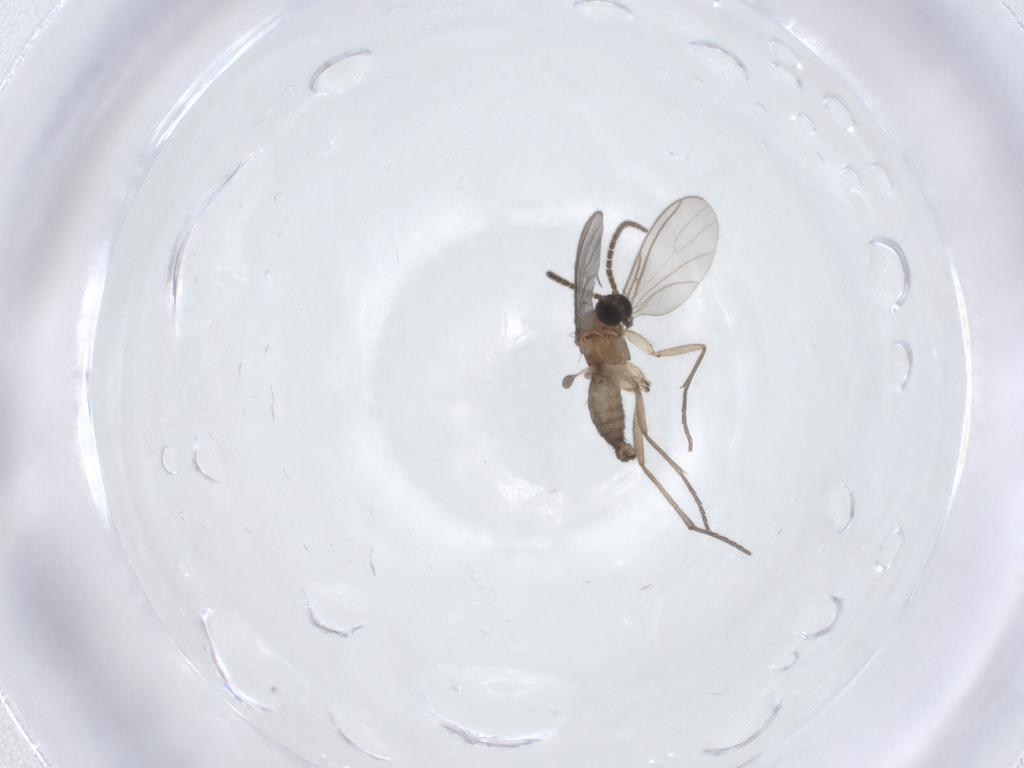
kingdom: Animalia
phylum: Arthropoda
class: Insecta
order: Diptera
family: Sciaridae
